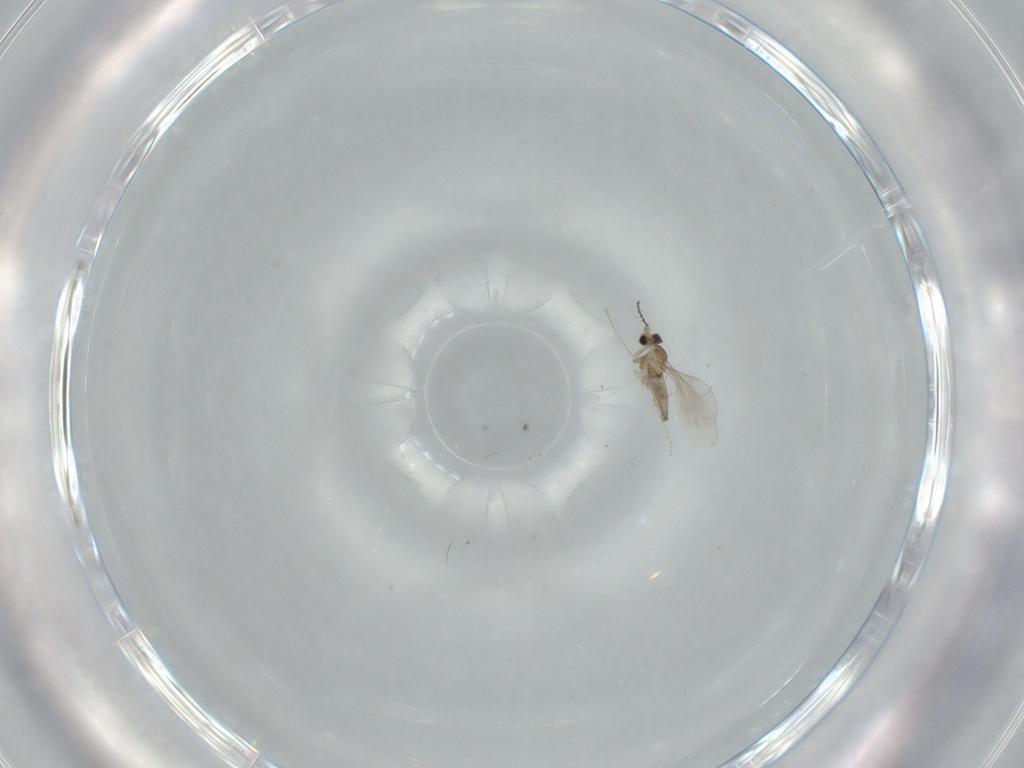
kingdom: Animalia
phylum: Arthropoda
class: Insecta
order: Diptera
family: Cecidomyiidae
